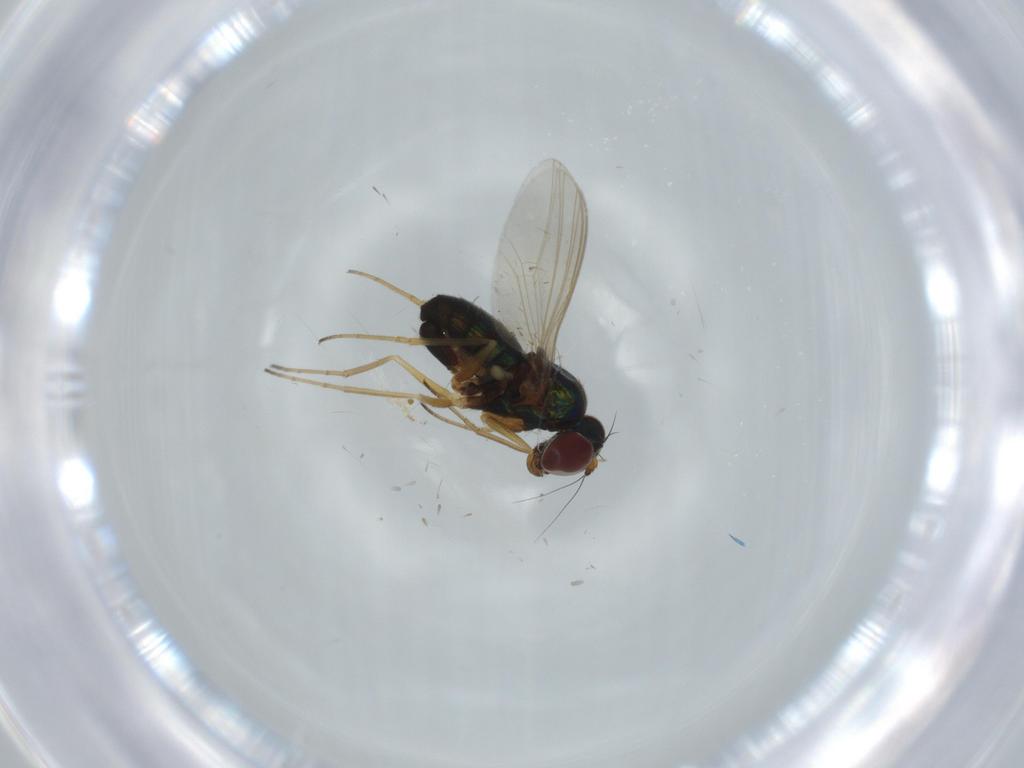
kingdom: Animalia
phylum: Arthropoda
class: Insecta
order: Diptera
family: Dolichopodidae
